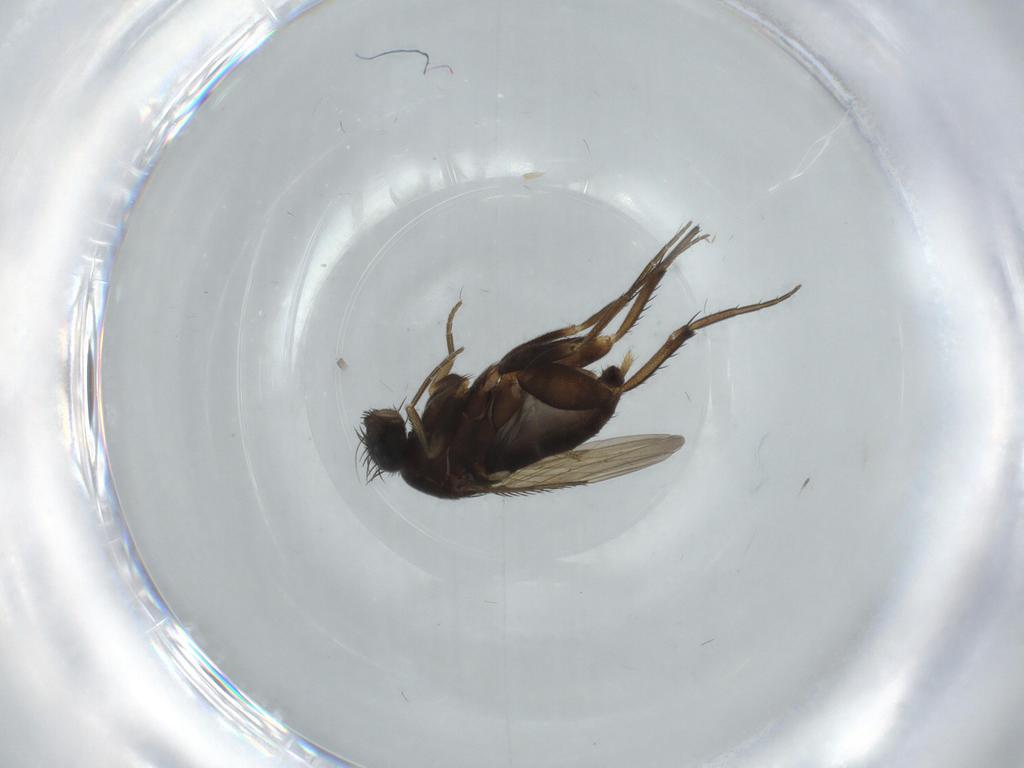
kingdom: Animalia
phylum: Arthropoda
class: Insecta
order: Diptera
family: Phoridae
